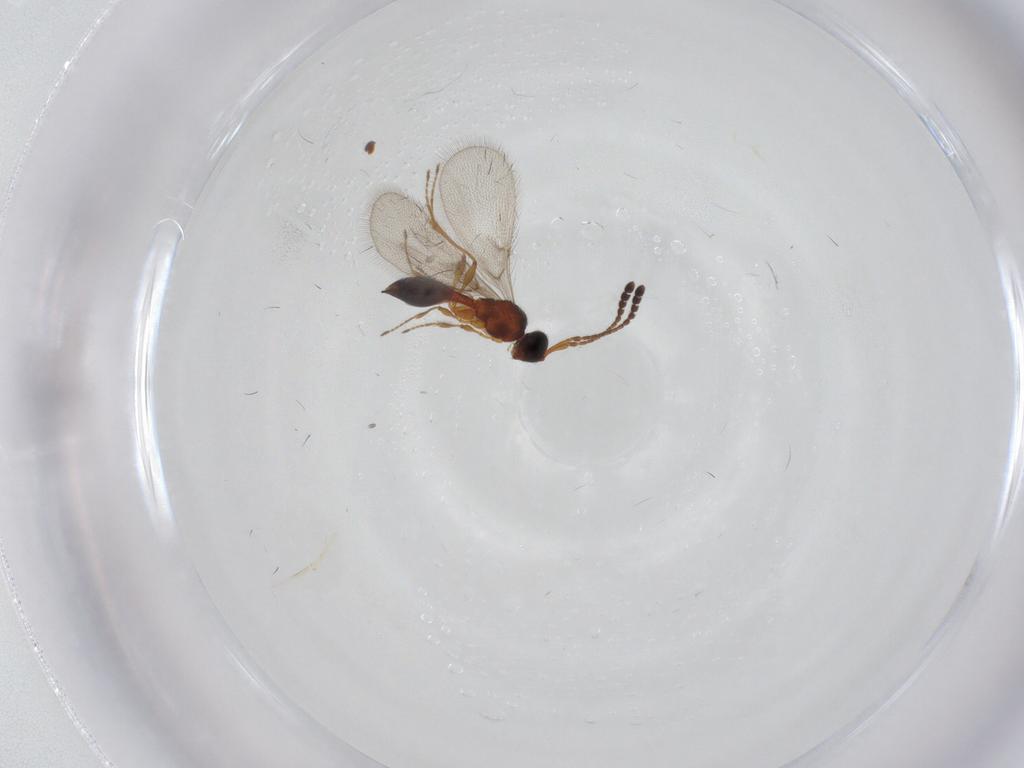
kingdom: Animalia
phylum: Arthropoda
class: Insecta
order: Hymenoptera
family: Diapriidae
